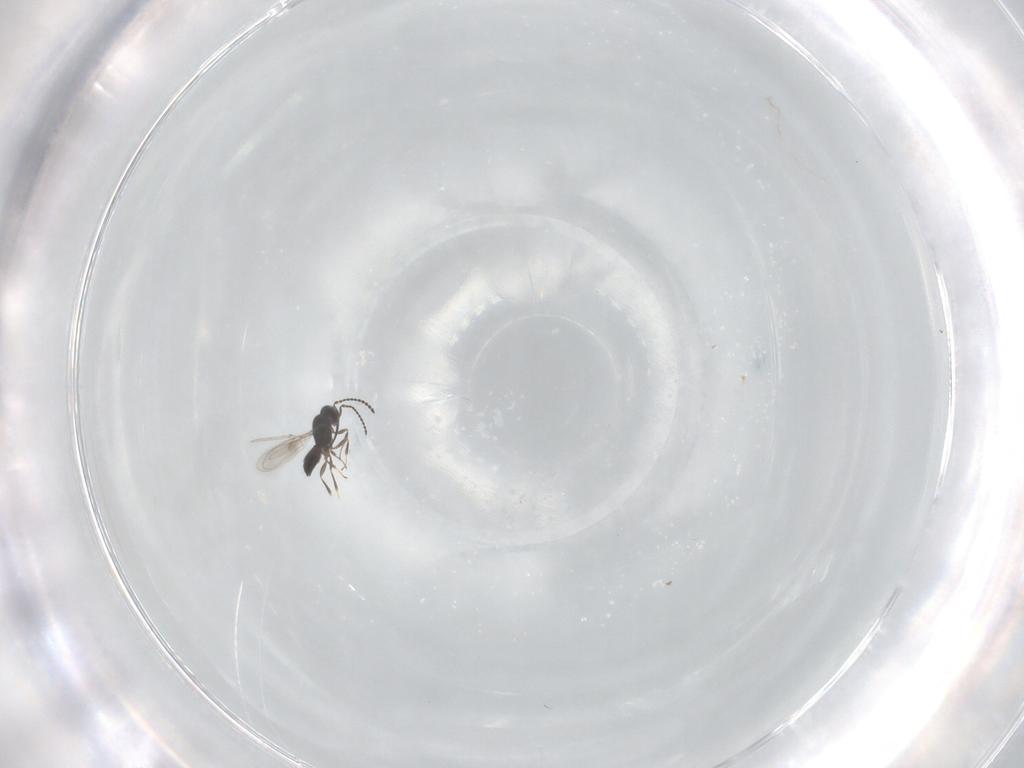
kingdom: Animalia
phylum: Arthropoda
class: Insecta
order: Hymenoptera
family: Scelionidae
